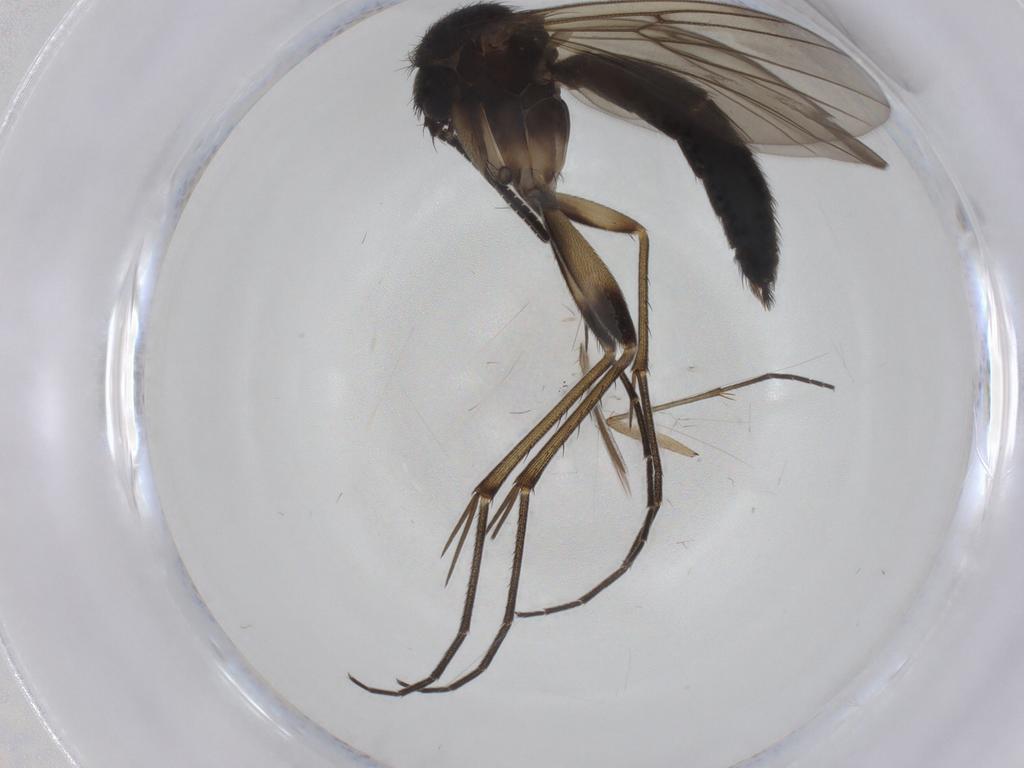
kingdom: Animalia
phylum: Arthropoda
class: Insecta
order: Diptera
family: Sciaridae
